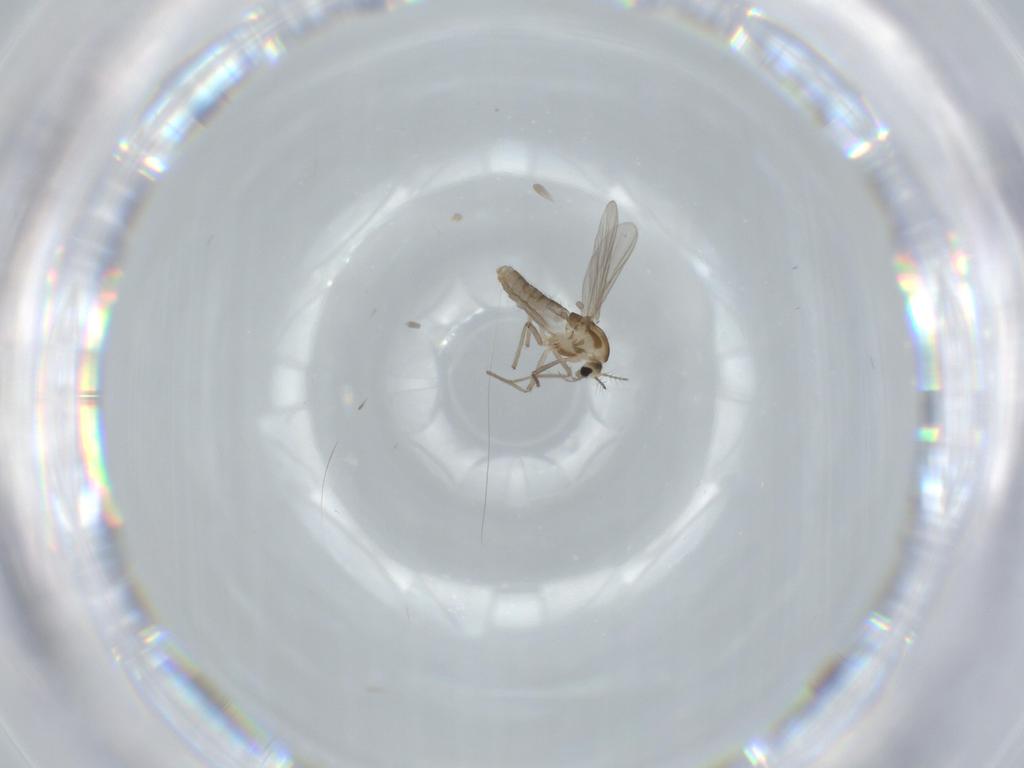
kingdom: Animalia
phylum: Arthropoda
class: Insecta
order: Diptera
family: Chironomidae
